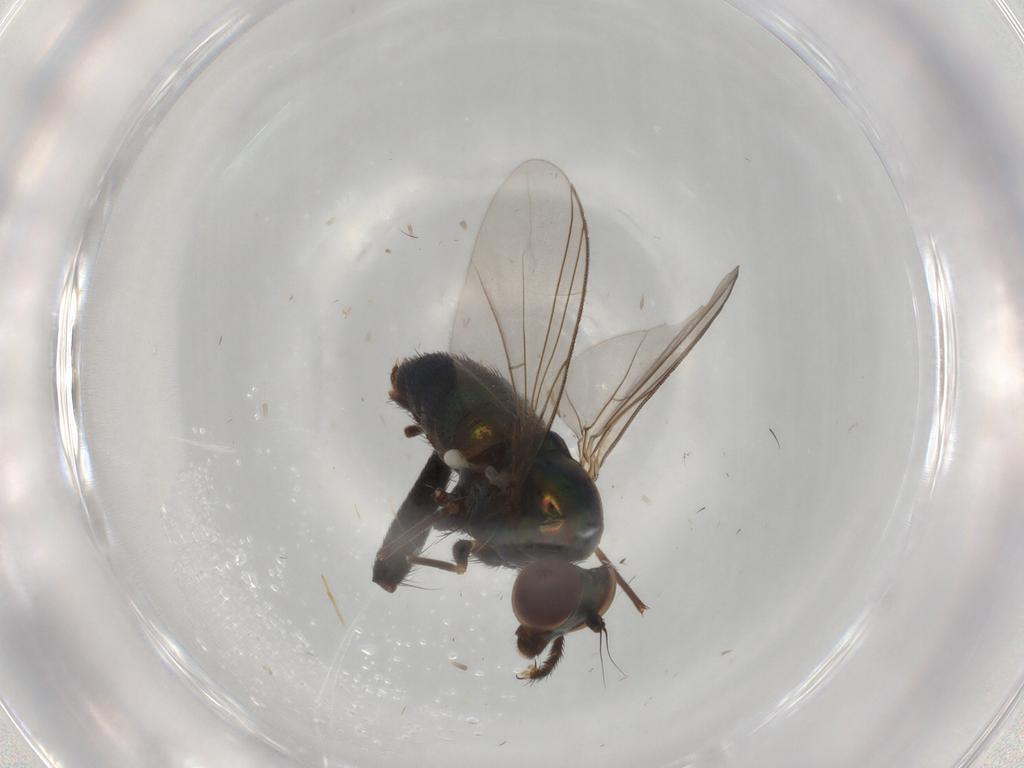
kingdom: Animalia
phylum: Arthropoda
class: Insecta
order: Diptera
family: Dolichopodidae
